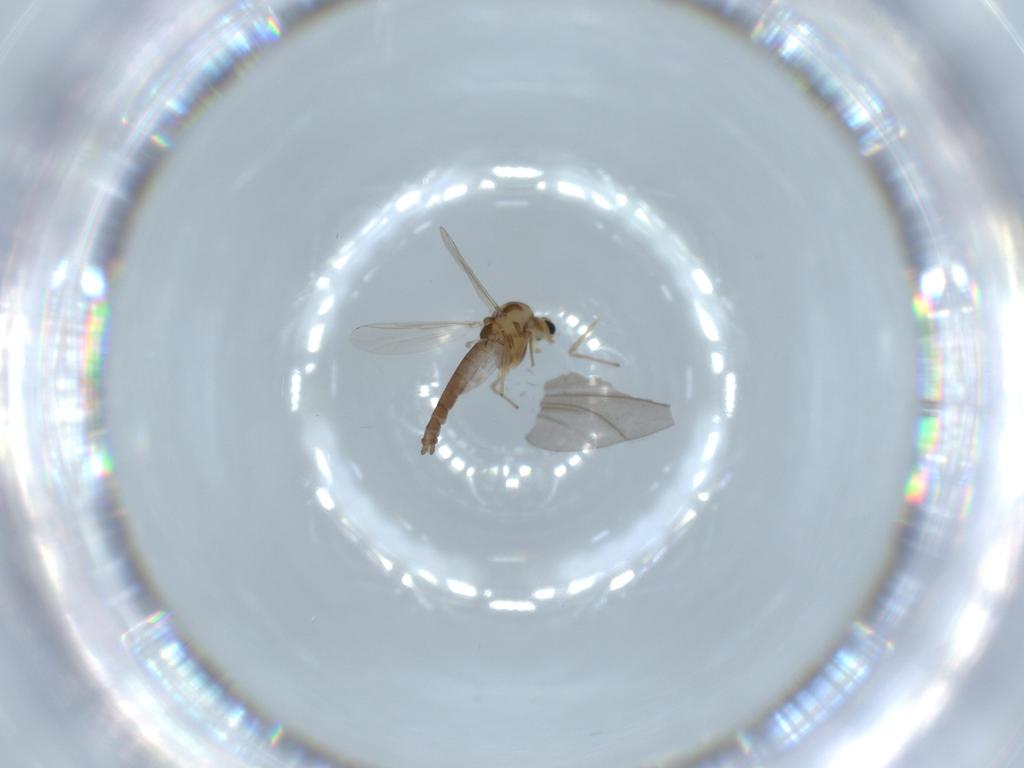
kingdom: Animalia
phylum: Arthropoda
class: Insecta
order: Diptera
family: Chironomidae
